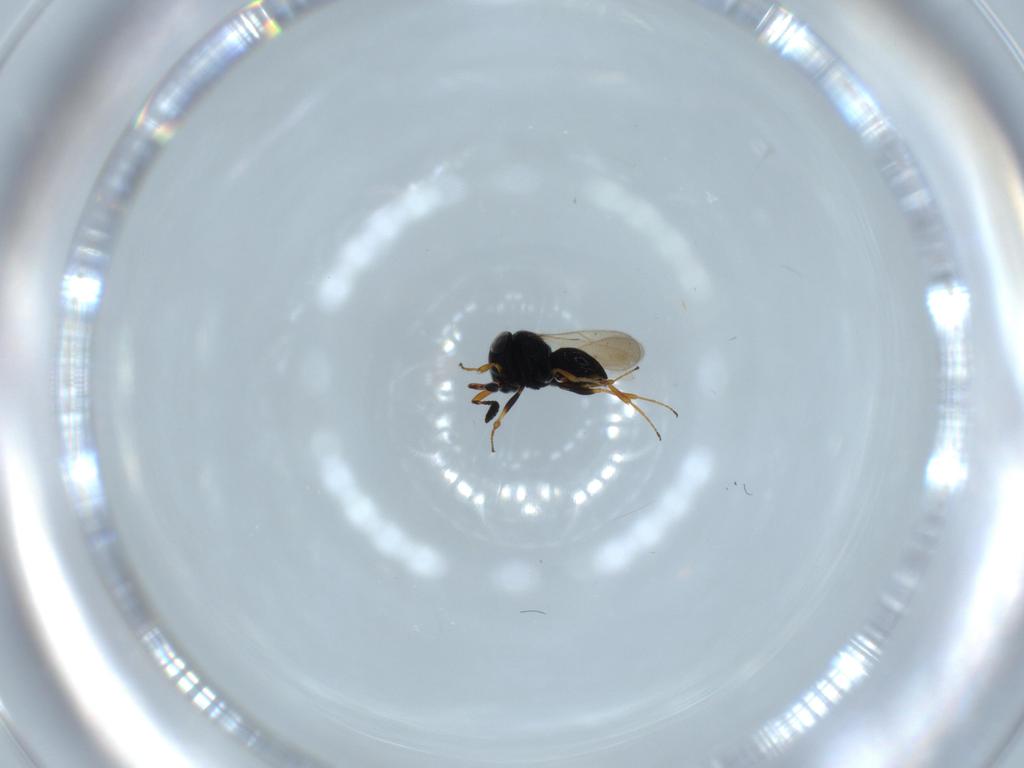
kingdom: Animalia
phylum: Arthropoda
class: Insecta
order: Hymenoptera
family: Scelionidae
